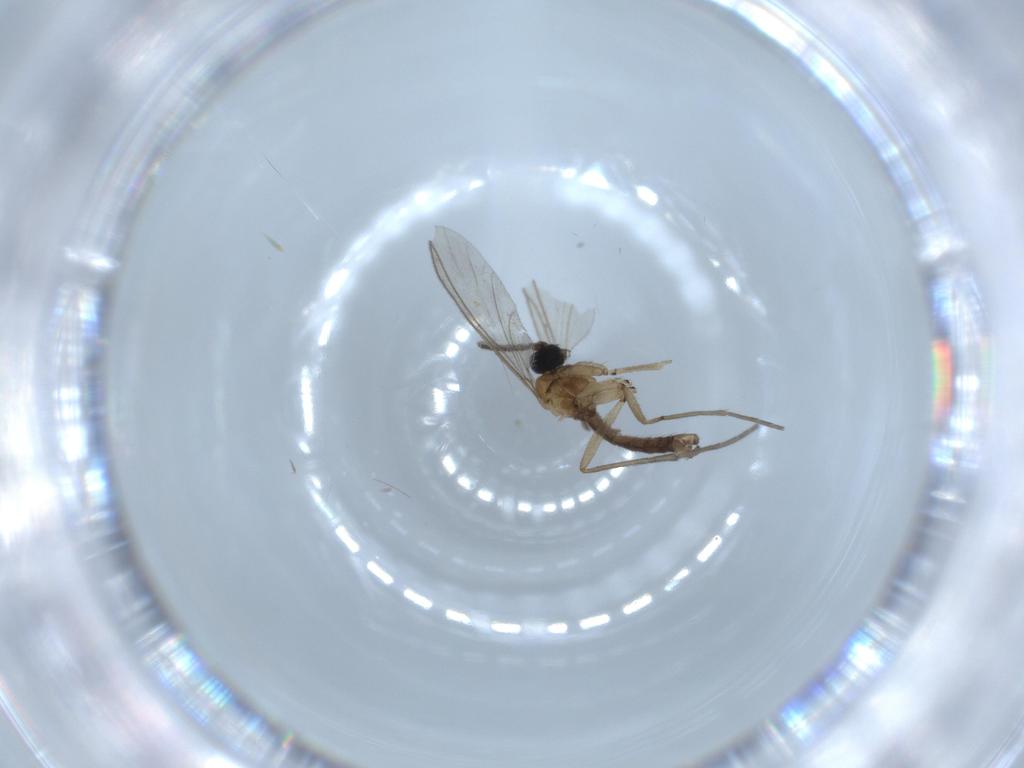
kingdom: Animalia
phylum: Arthropoda
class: Insecta
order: Diptera
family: Sciaridae
